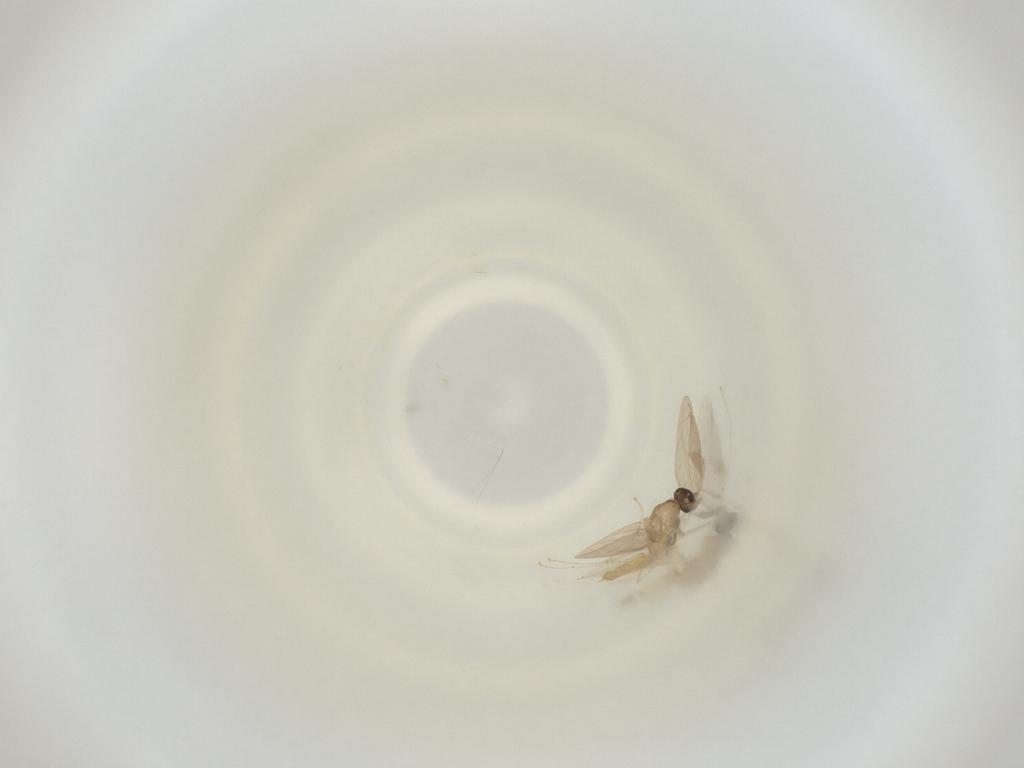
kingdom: Animalia
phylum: Arthropoda
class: Insecta
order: Diptera
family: Cecidomyiidae
